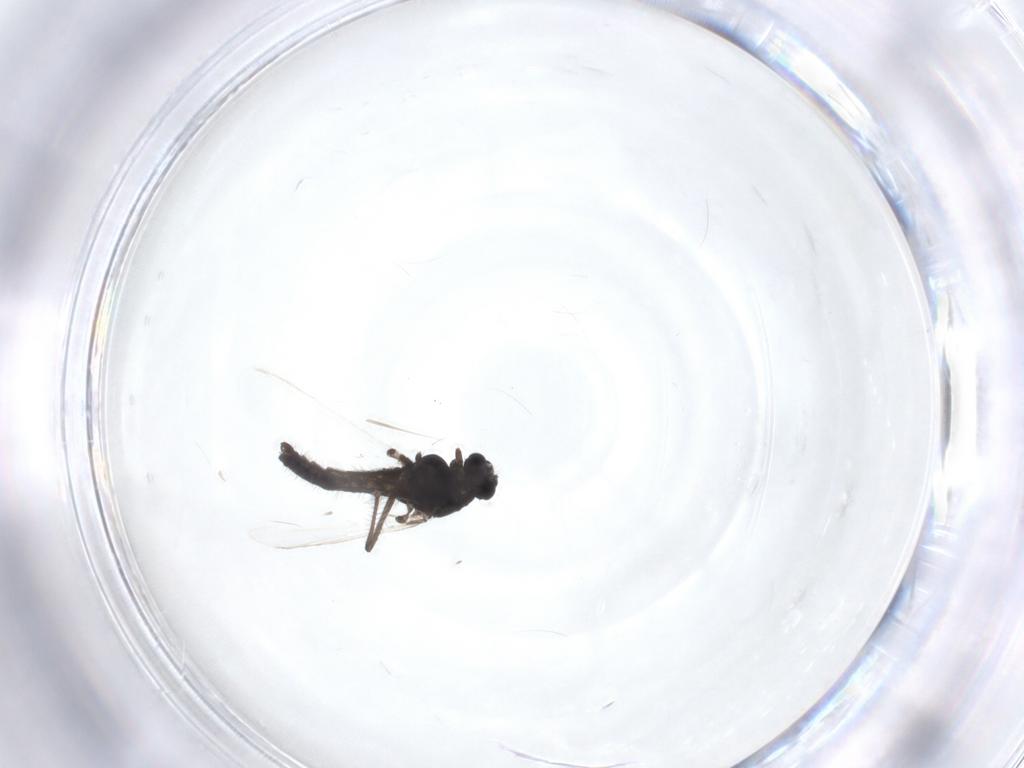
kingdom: Animalia
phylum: Arthropoda
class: Insecta
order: Diptera
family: Chironomidae
